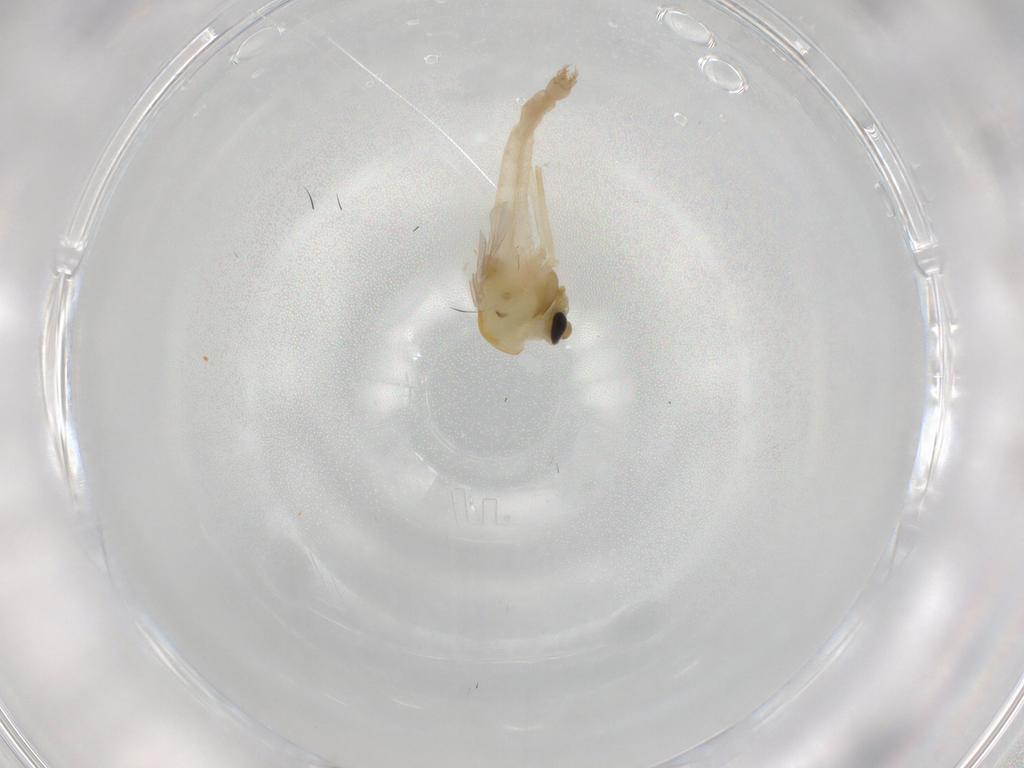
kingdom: Animalia
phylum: Arthropoda
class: Insecta
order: Diptera
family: Chironomidae
